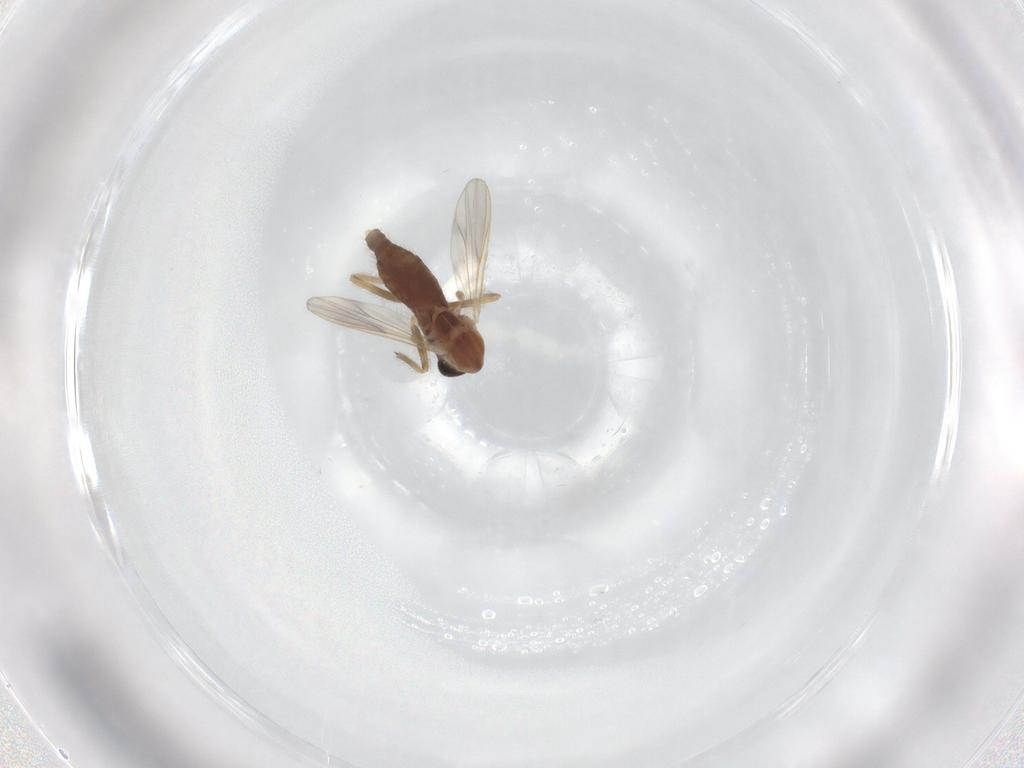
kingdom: Animalia
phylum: Arthropoda
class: Insecta
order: Diptera
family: Chironomidae
